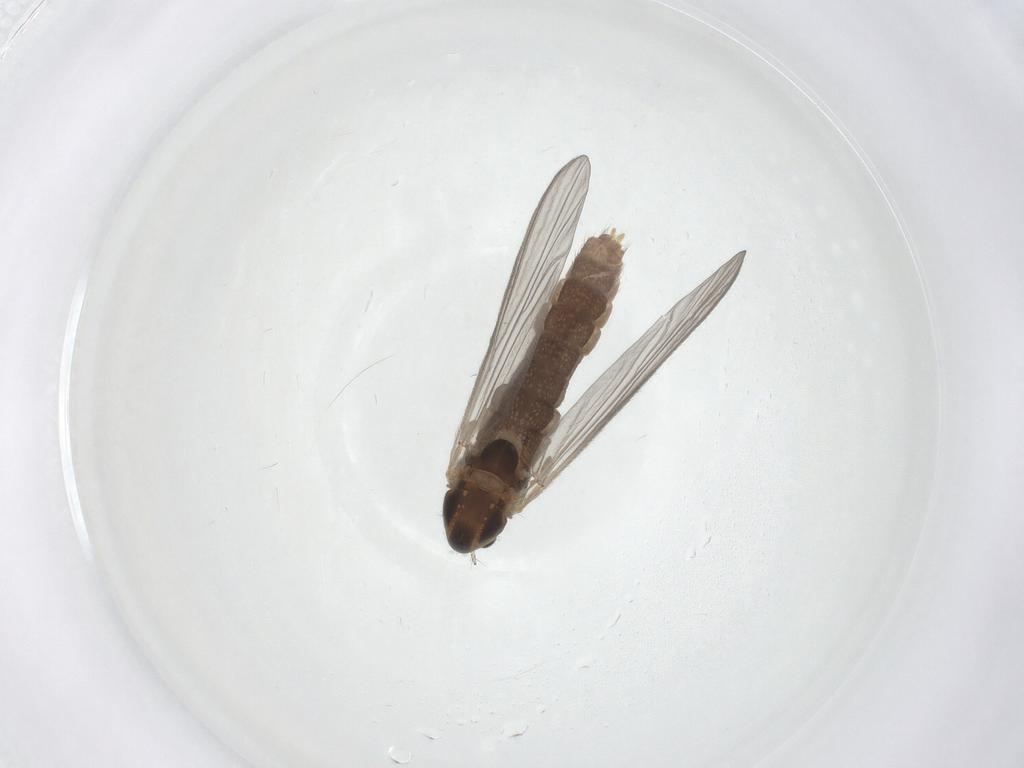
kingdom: Animalia
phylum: Arthropoda
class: Insecta
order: Diptera
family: Chironomidae
